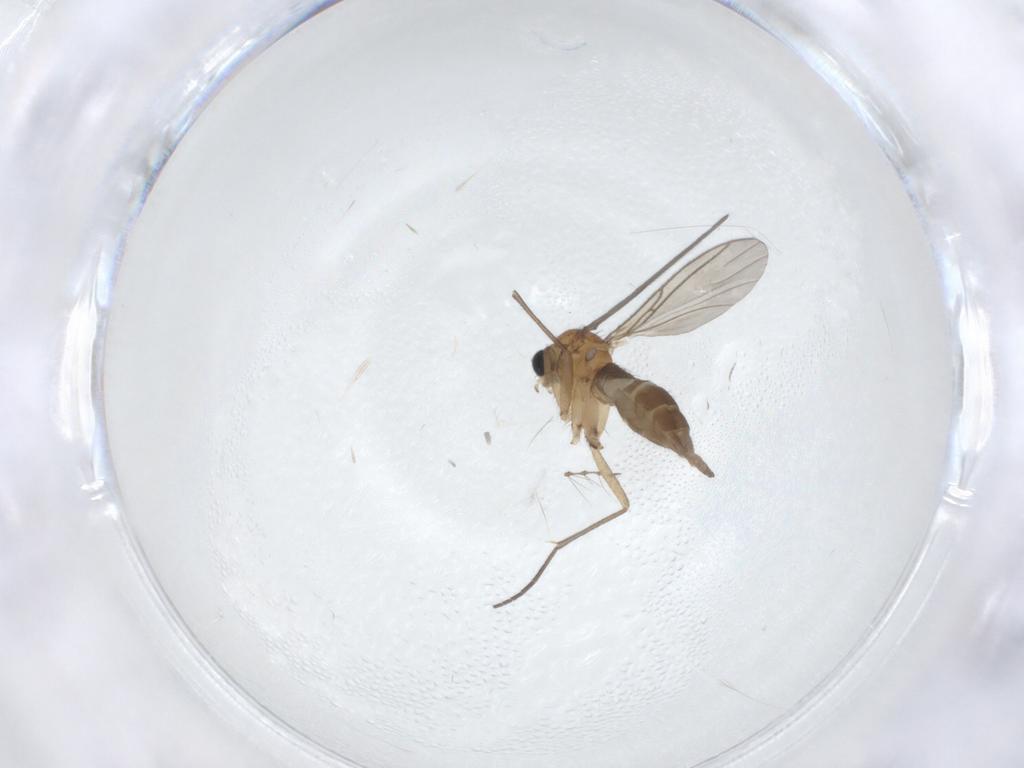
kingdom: Animalia
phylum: Arthropoda
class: Insecta
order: Diptera
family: Sciaridae
